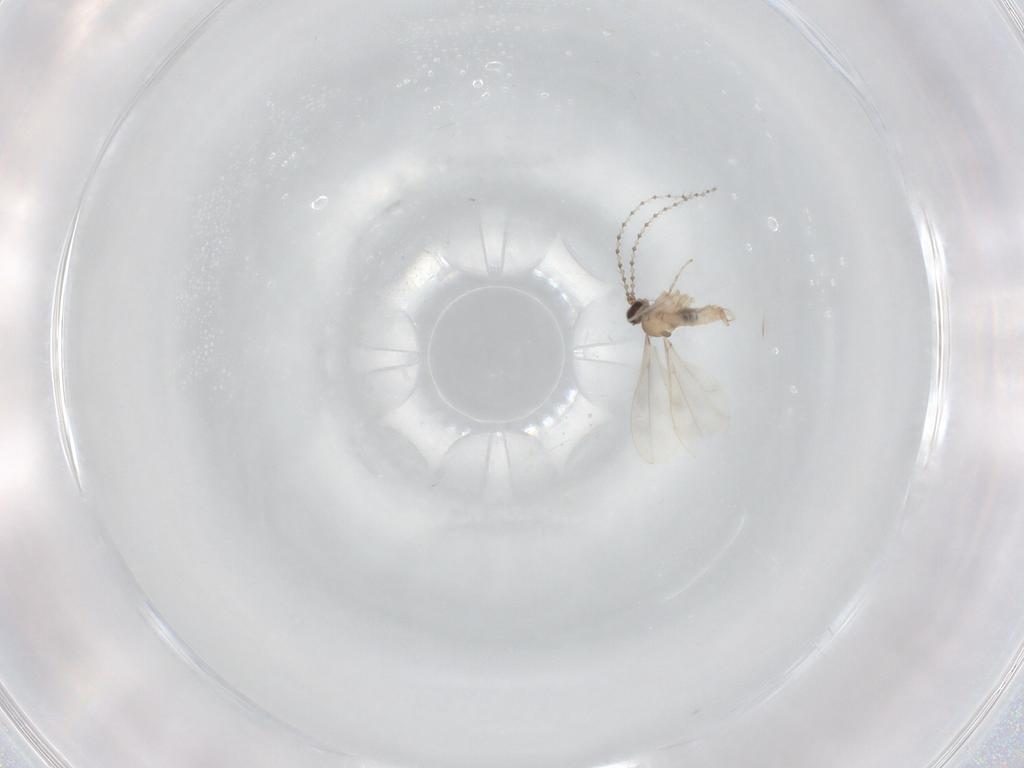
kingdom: Animalia
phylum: Arthropoda
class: Insecta
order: Diptera
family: Cecidomyiidae
